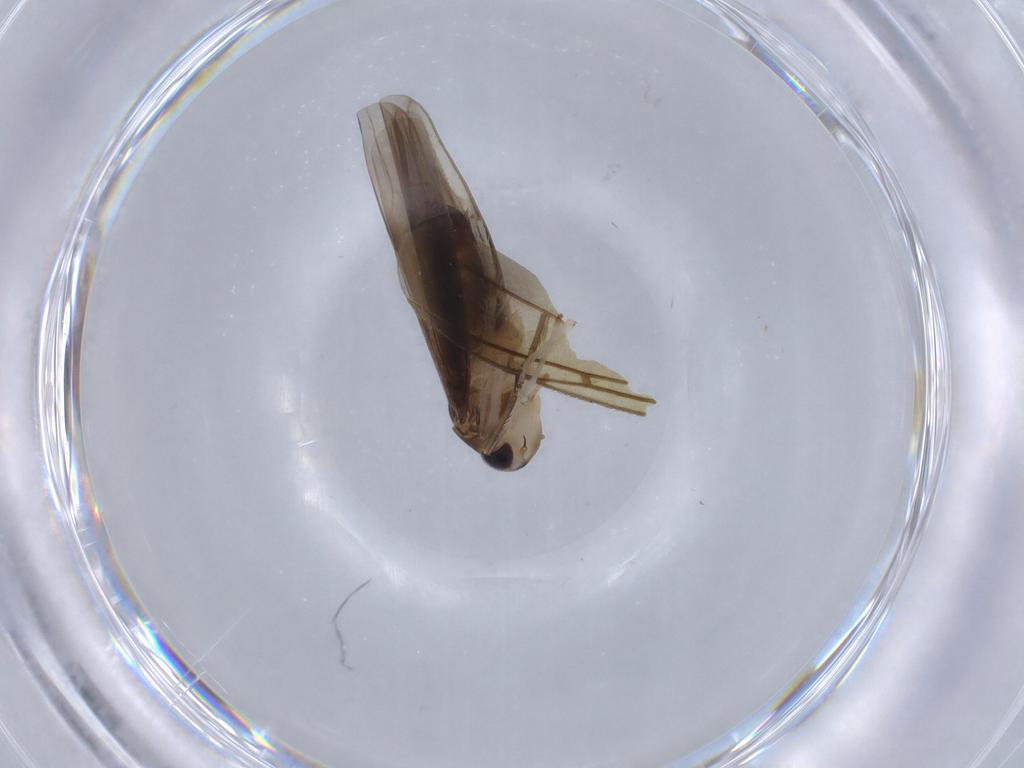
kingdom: Animalia
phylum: Arthropoda
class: Insecta
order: Hemiptera
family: Cicadellidae
